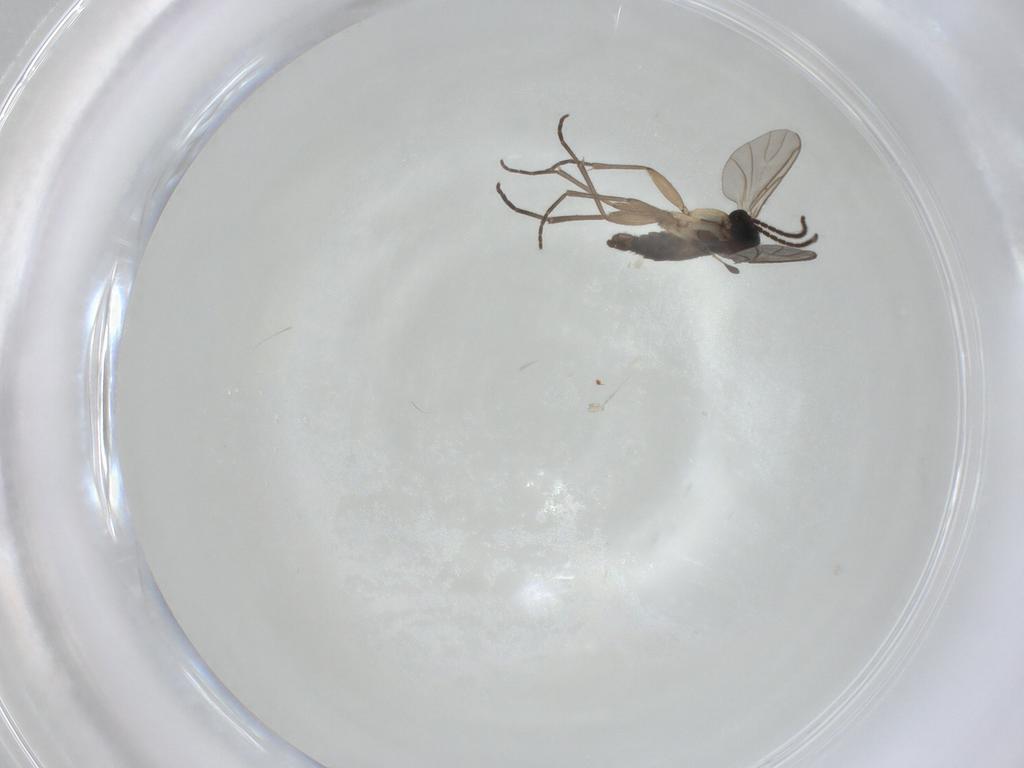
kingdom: Animalia
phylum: Arthropoda
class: Insecta
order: Diptera
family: Sciaridae
